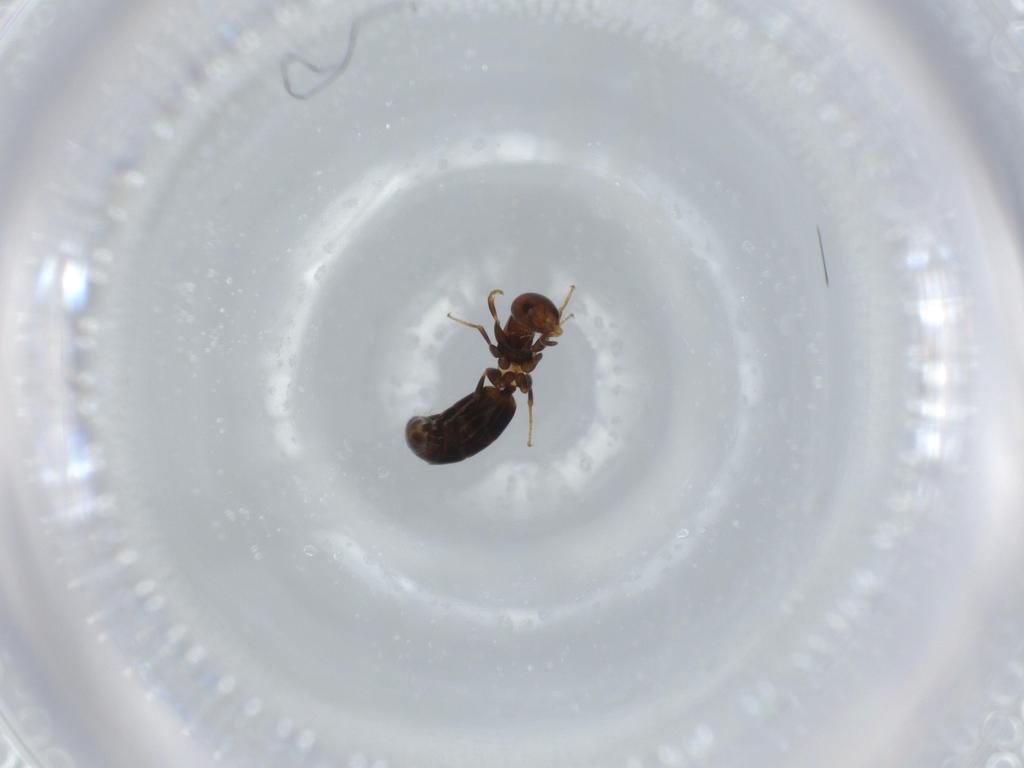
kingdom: Animalia
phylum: Arthropoda
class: Insecta
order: Hymenoptera
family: Bethylidae
